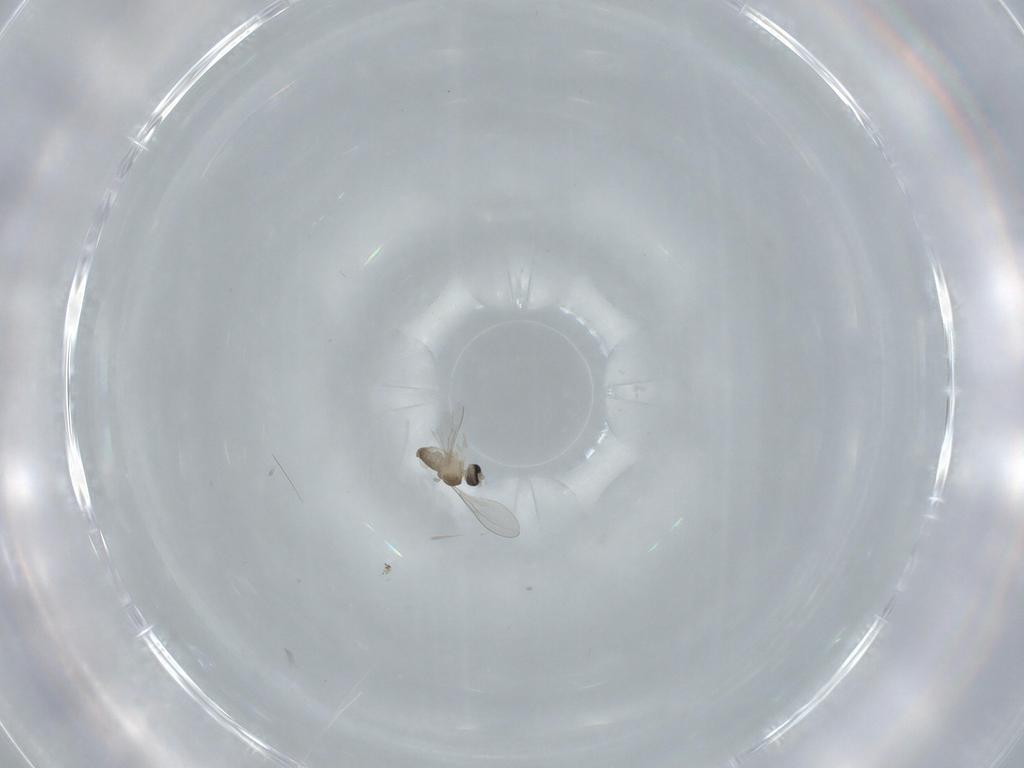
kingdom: Animalia
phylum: Arthropoda
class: Insecta
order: Diptera
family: Cecidomyiidae
